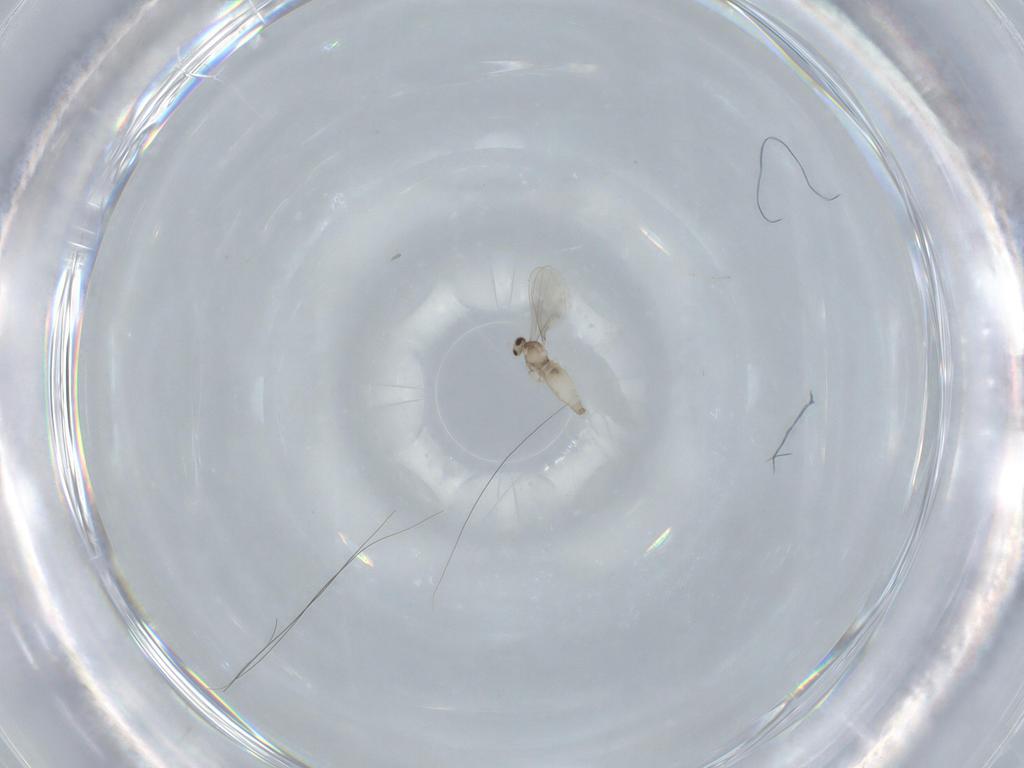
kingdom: Animalia
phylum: Arthropoda
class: Insecta
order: Diptera
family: Cecidomyiidae
